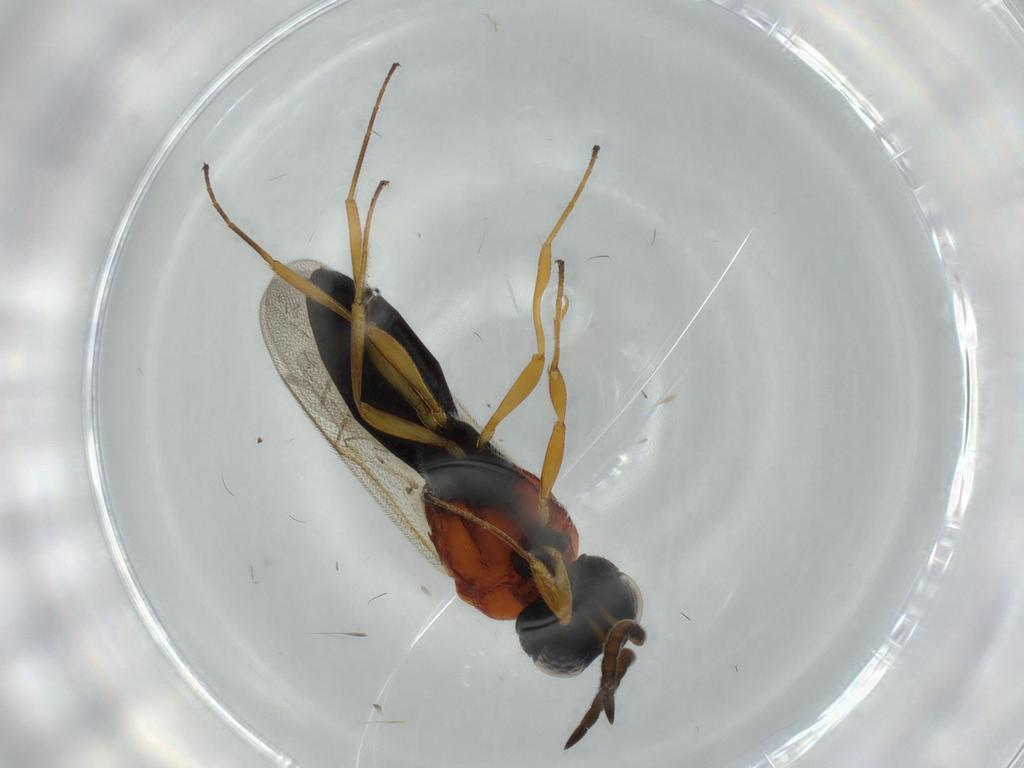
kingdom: Animalia
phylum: Arthropoda
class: Insecta
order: Hymenoptera
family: Scelionidae
